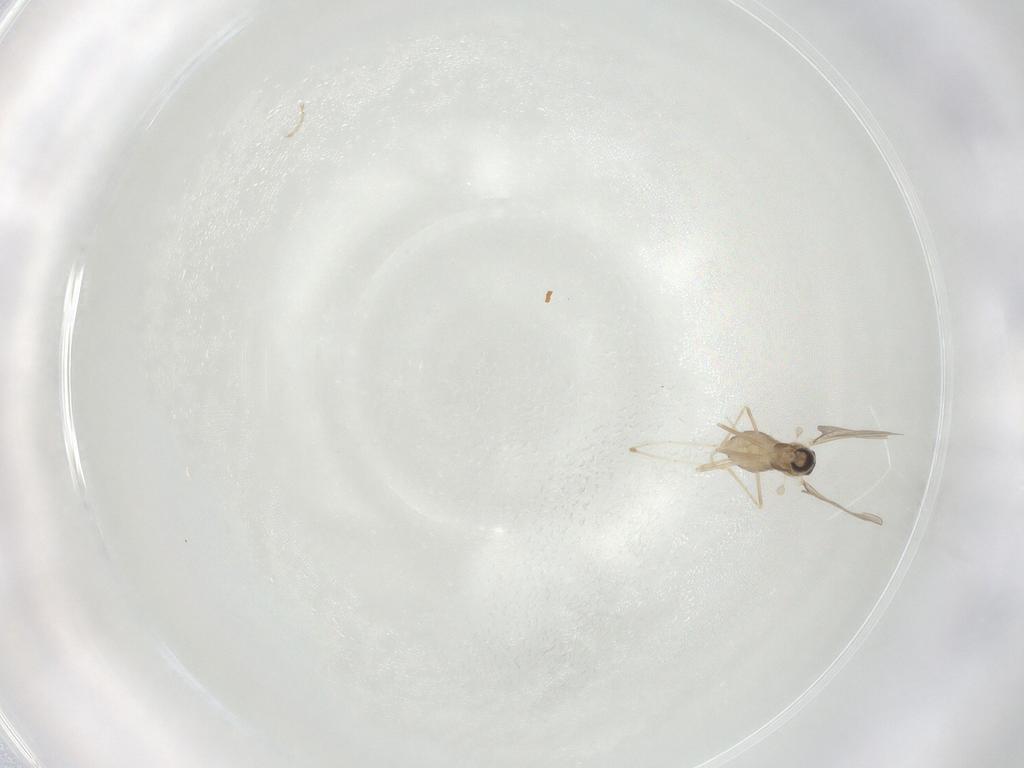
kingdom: Animalia
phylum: Arthropoda
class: Insecta
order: Diptera
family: Cecidomyiidae
